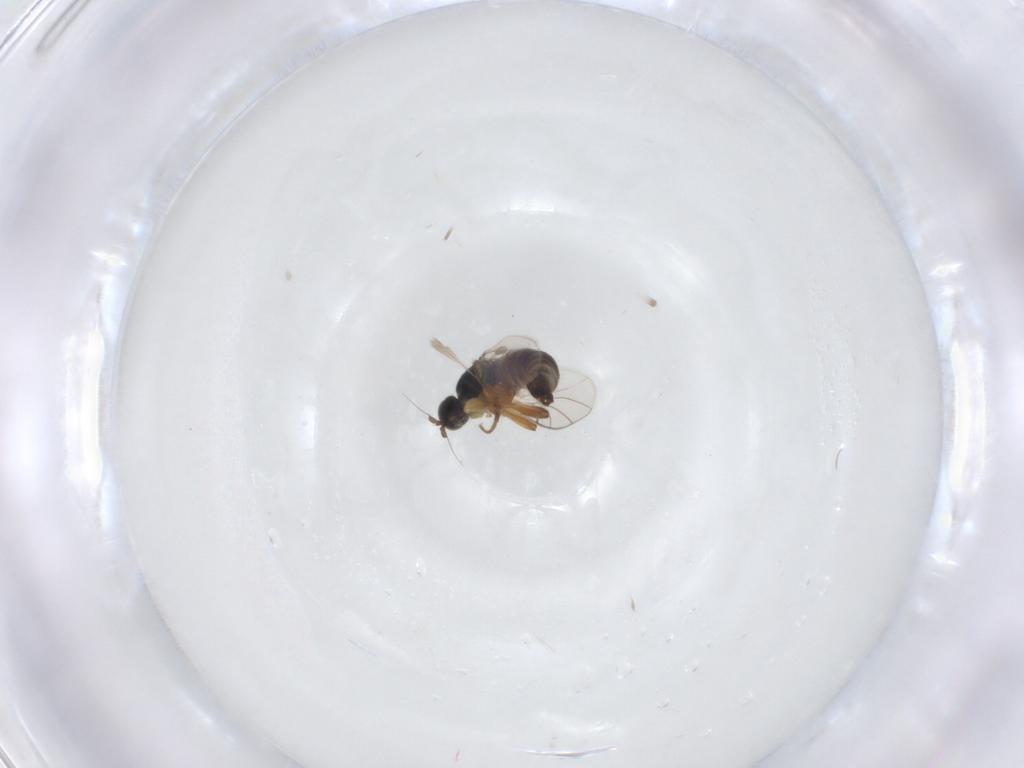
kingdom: Animalia
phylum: Arthropoda
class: Insecta
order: Diptera
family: Hybotidae
